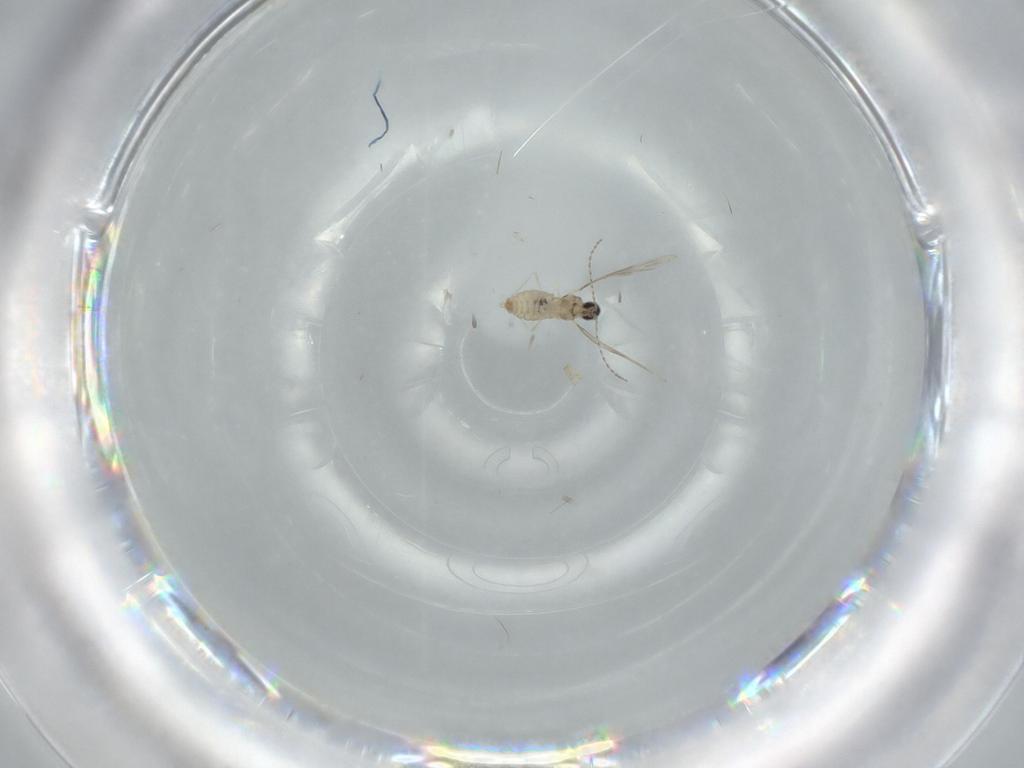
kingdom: Animalia
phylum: Arthropoda
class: Insecta
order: Diptera
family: Cecidomyiidae
